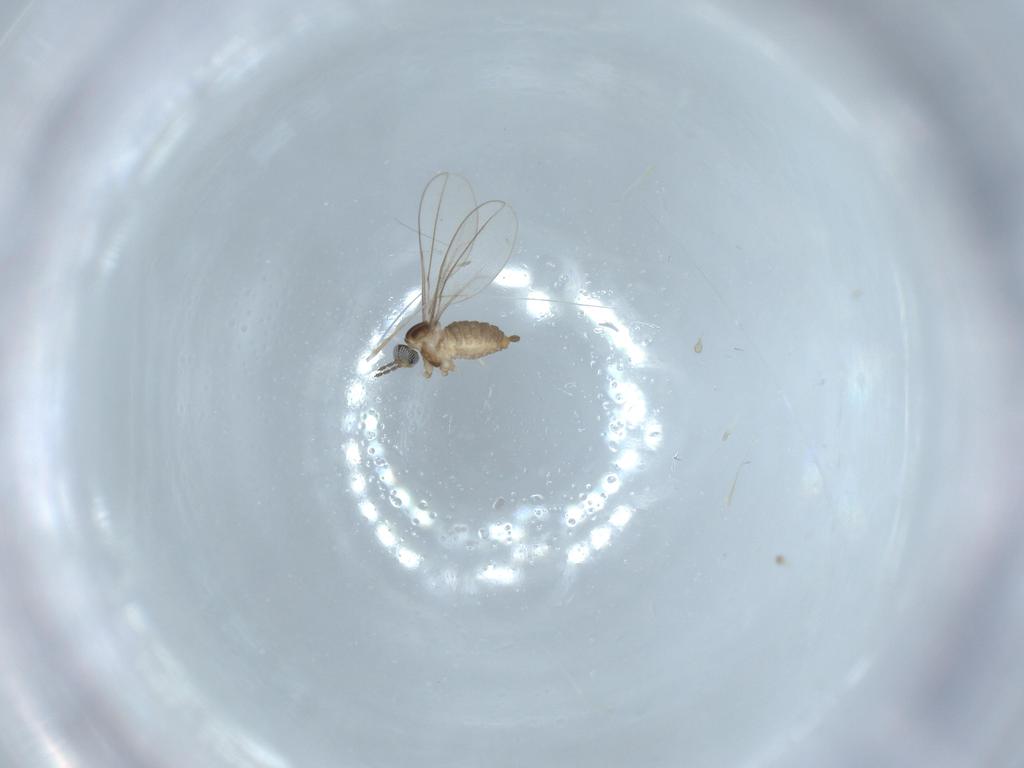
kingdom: Animalia
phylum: Arthropoda
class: Insecta
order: Diptera
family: Cecidomyiidae
